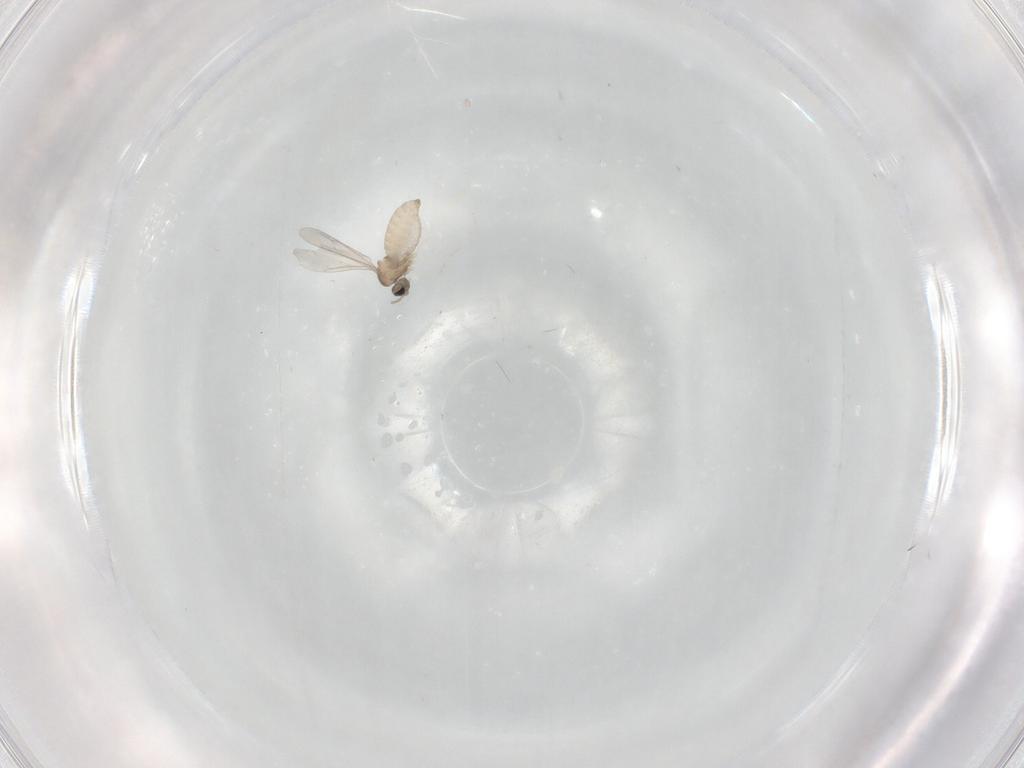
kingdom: Animalia
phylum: Arthropoda
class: Insecta
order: Diptera
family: Cecidomyiidae
